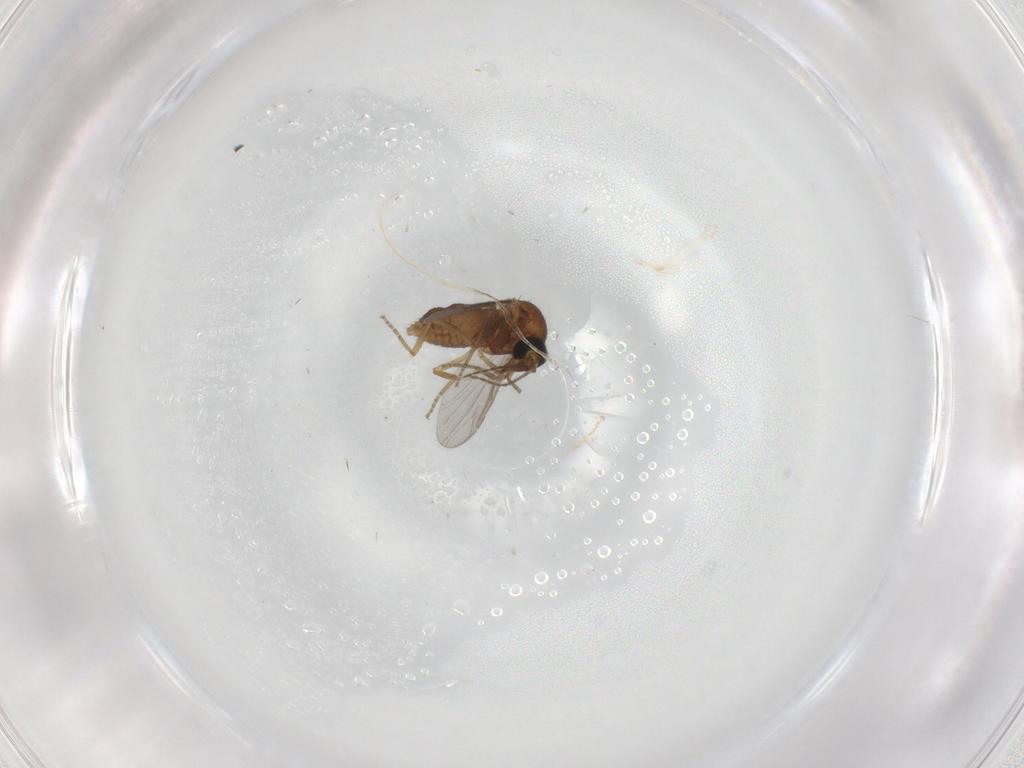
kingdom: Animalia
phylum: Arthropoda
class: Insecta
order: Diptera
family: Ceratopogonidae
